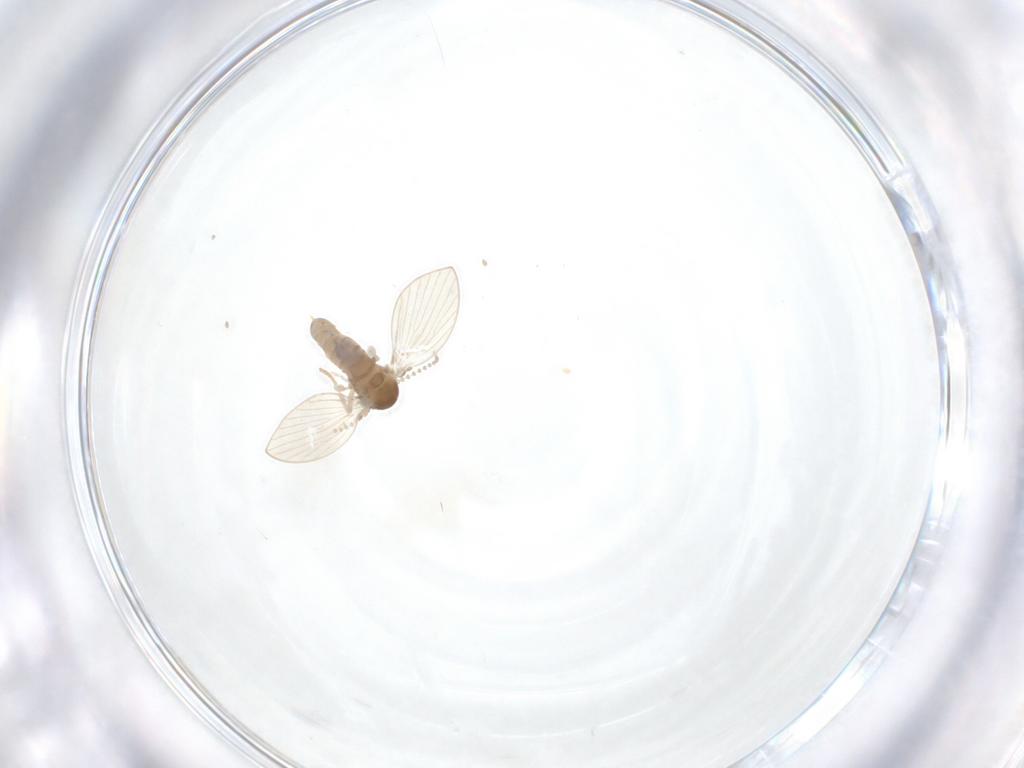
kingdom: Animalia
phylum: Arthropoda
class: Insecta
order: Diptera
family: Psychodidae
